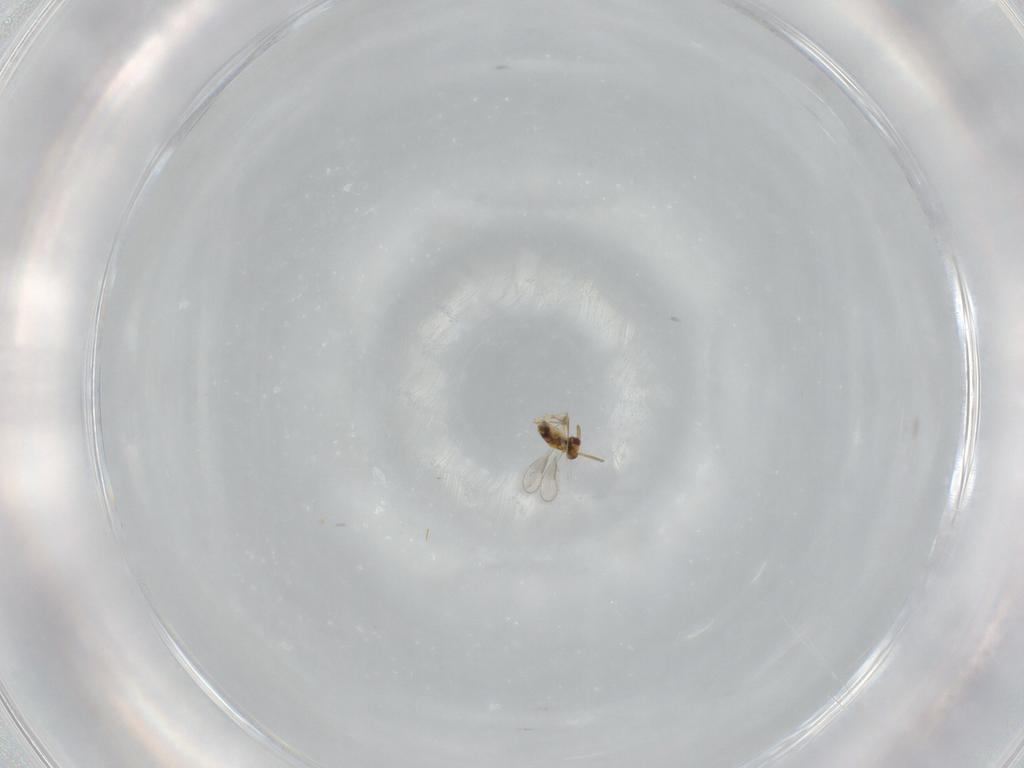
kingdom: Animalia
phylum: Arthropoda
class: Insecta
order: Hymenoptera
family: Aphelinidae
